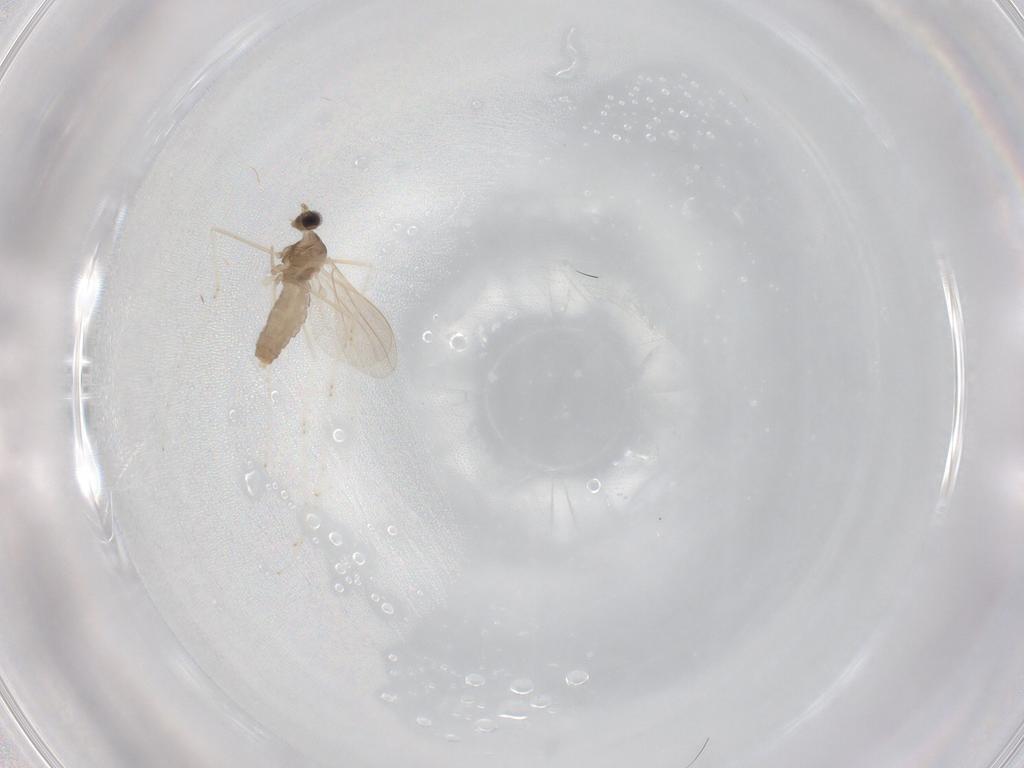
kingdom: Animalia
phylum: Arthropoda
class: Insecta
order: Diptera
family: Cecidomyiidae
